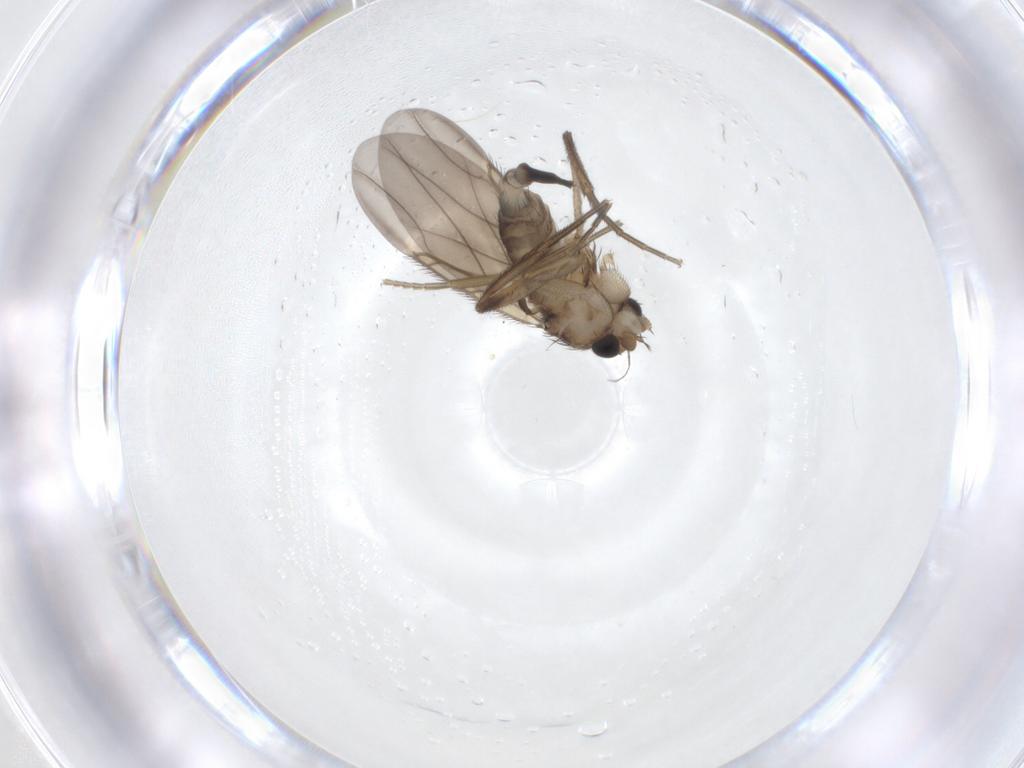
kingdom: Animalia
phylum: Arthropoda
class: Insecta
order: Diptera
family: Phoridae
